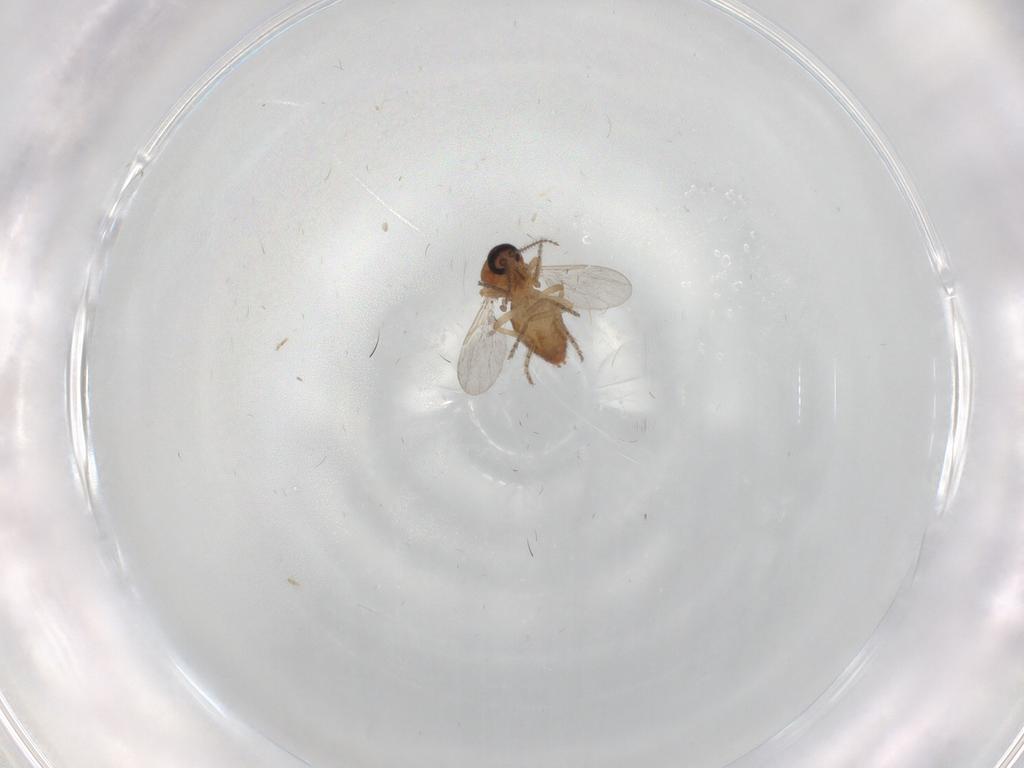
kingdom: Animalia
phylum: Arthropoda
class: Insecta
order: Diptera
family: Ceratopogonidae
